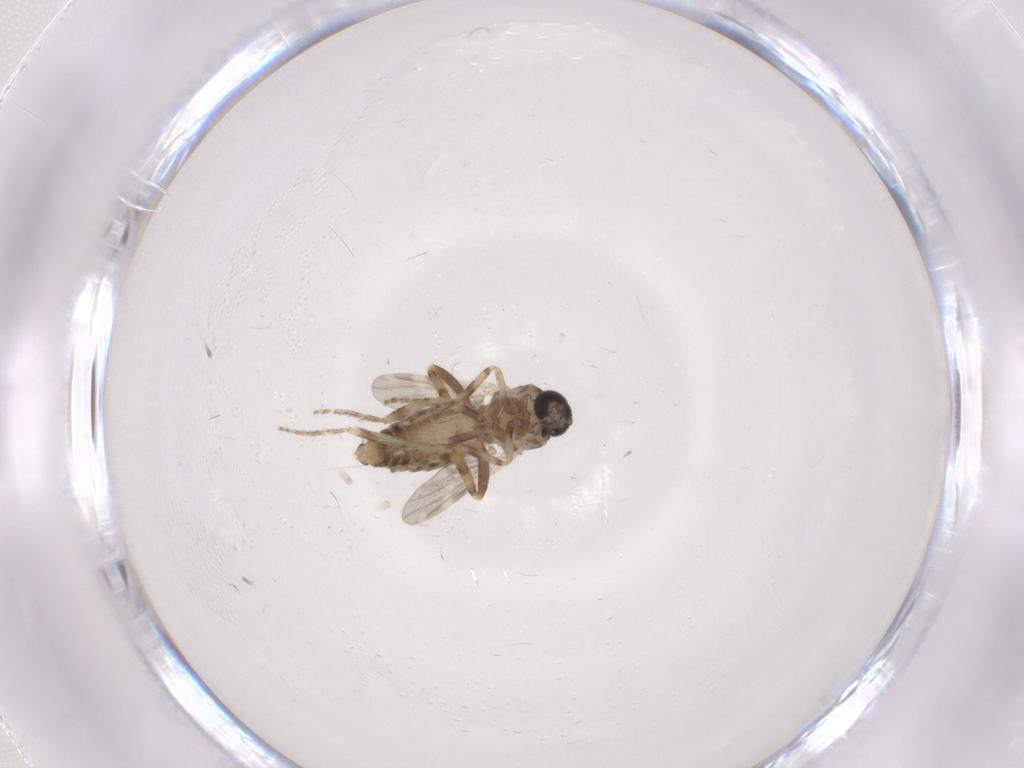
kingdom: Animalia
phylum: Arthropoda
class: Insecta
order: Diptera
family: Ceratopogonidae
